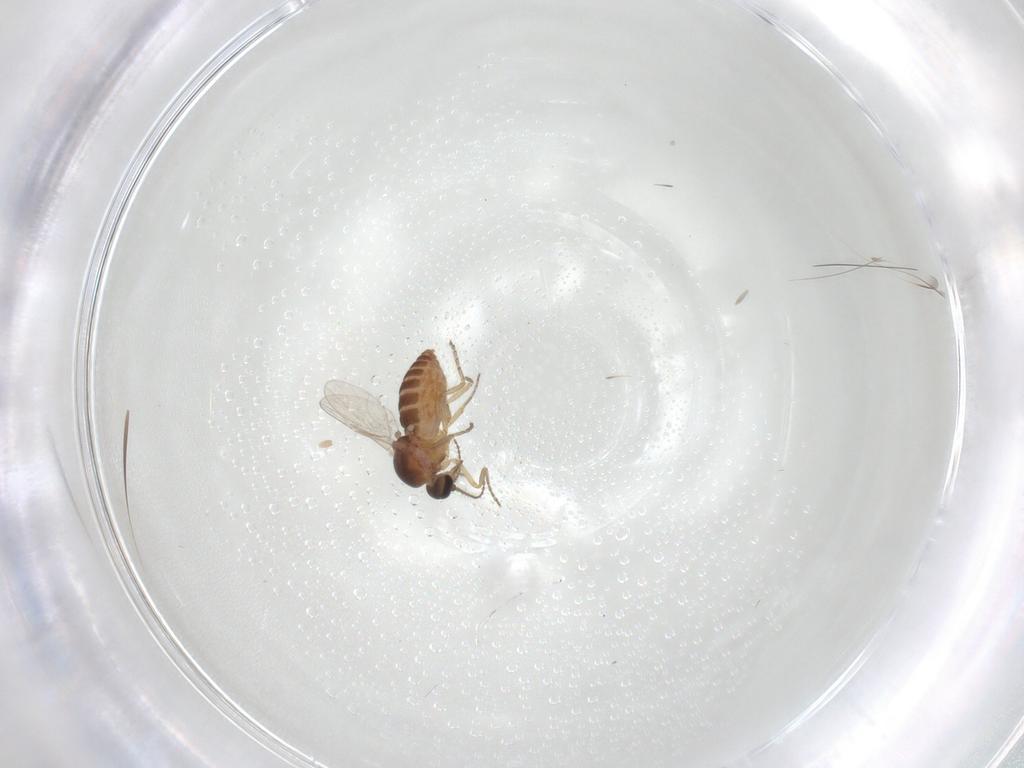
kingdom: Animalia
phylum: Arthropoda
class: Insecta
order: Diptera
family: Ceratopogonidae
